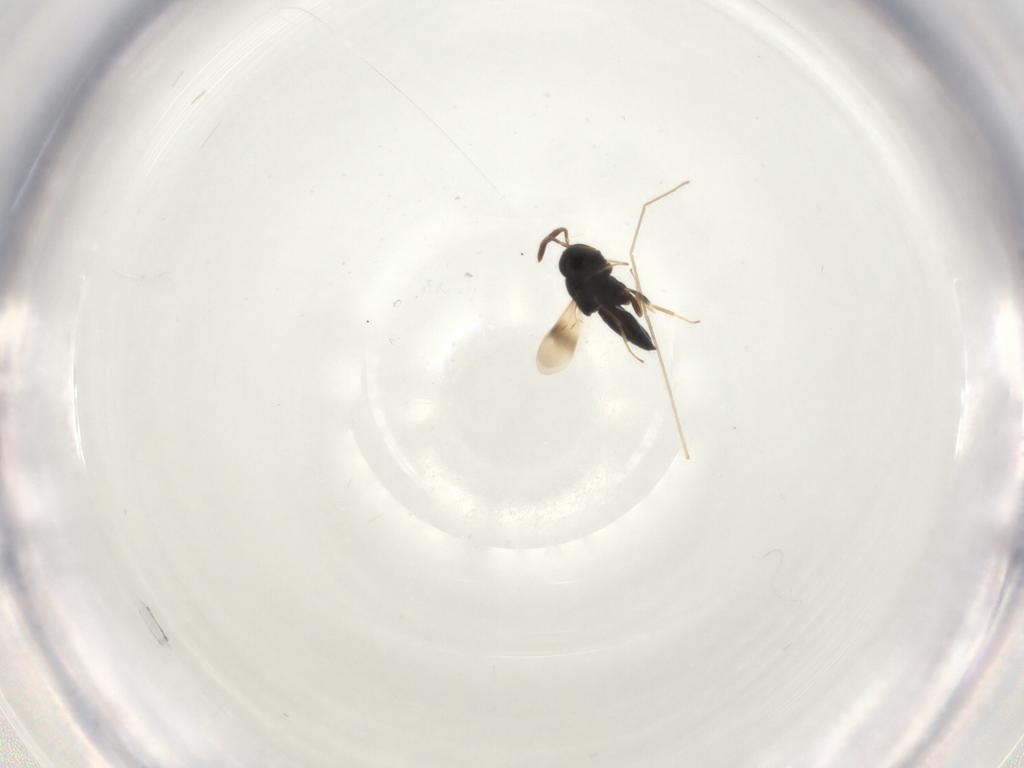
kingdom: Animalia
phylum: Arthropoda
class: Insecta
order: Hymenoptera
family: Scelionidae
